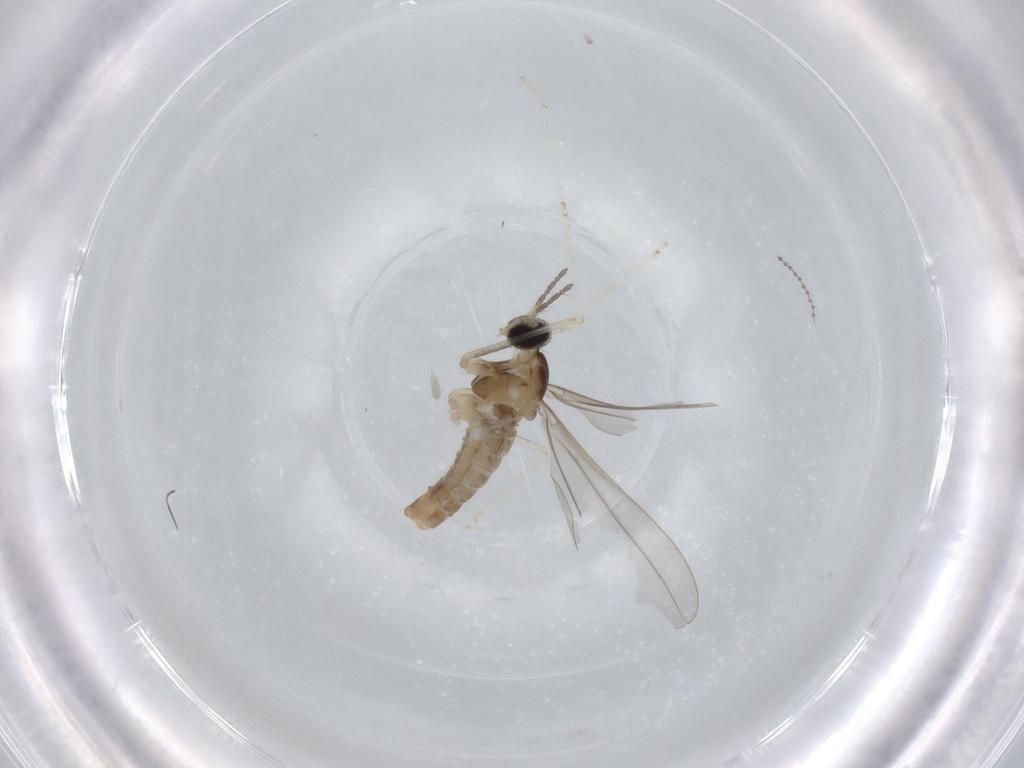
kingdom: Animalia
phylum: Arthropoda
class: Insecta
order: Diptera
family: Cecidomyiidae
